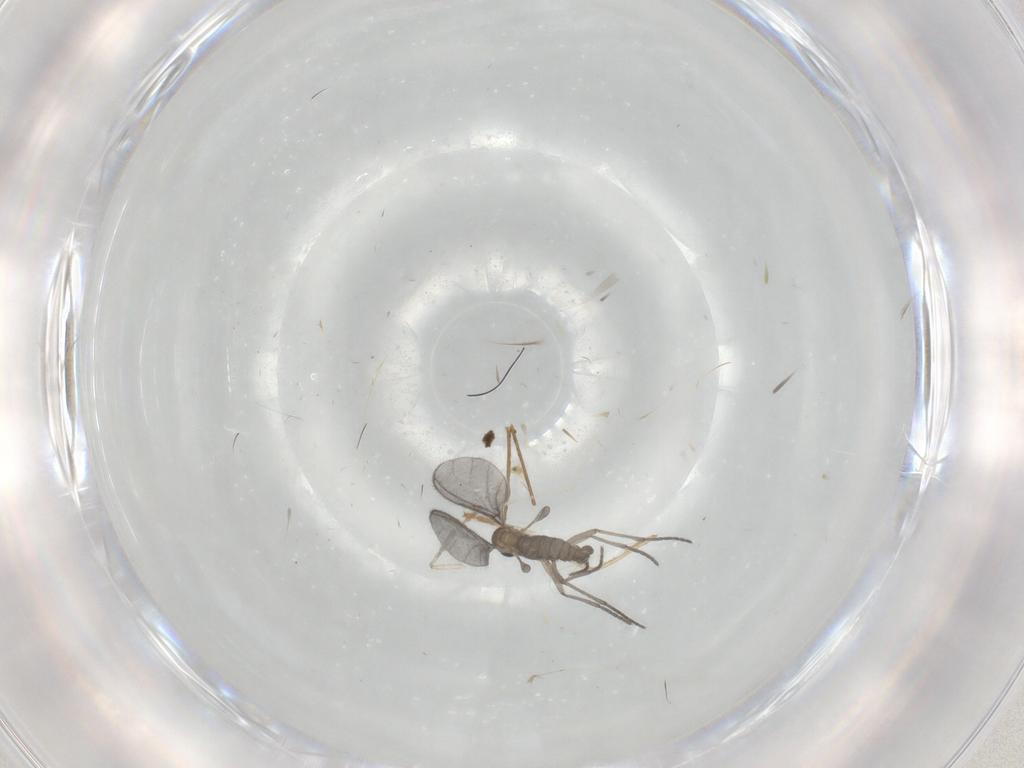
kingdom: Animalia
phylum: Arthropoda
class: Insecta
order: Diptera
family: Sciaridae
